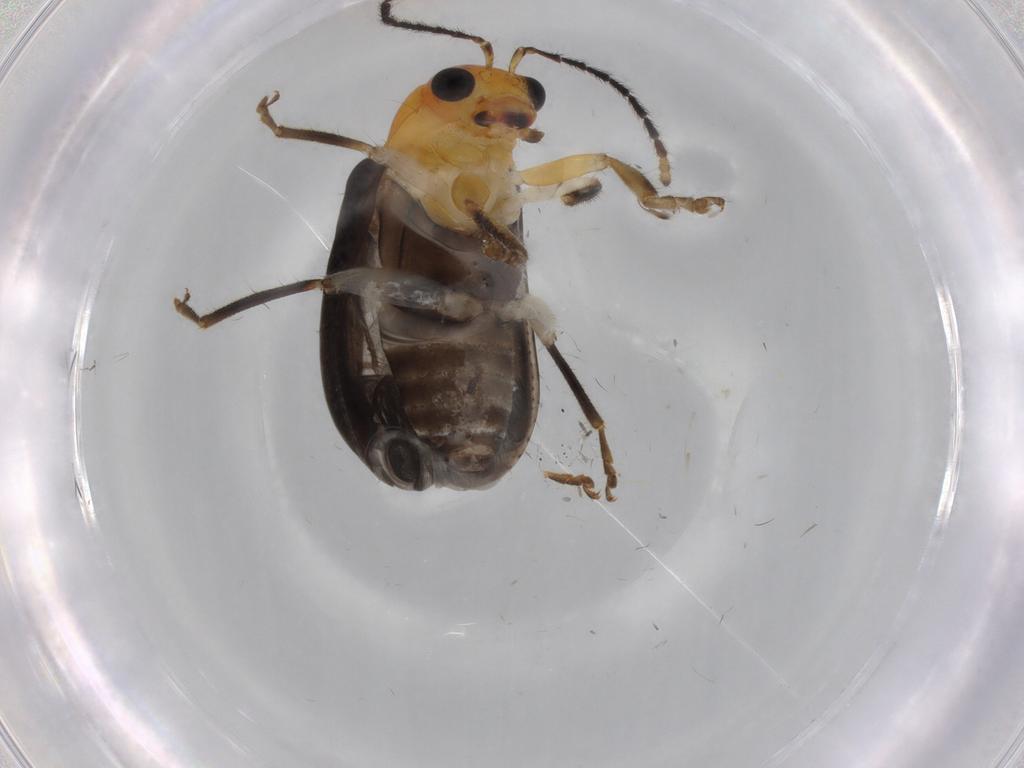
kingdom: Animalia
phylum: Arthropoda
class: Insecta
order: Coleoptera
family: Chrysomelidae
